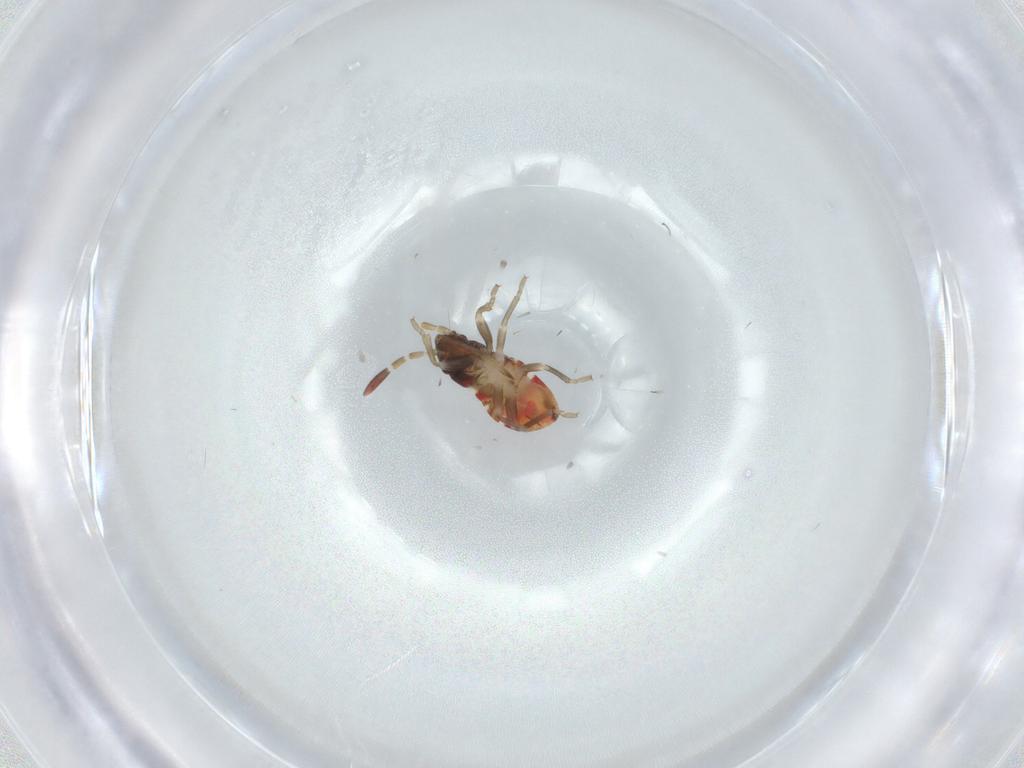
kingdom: Animalia
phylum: Arthropoda
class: Insecta
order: Hemiptera
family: Rhyparochromidae
